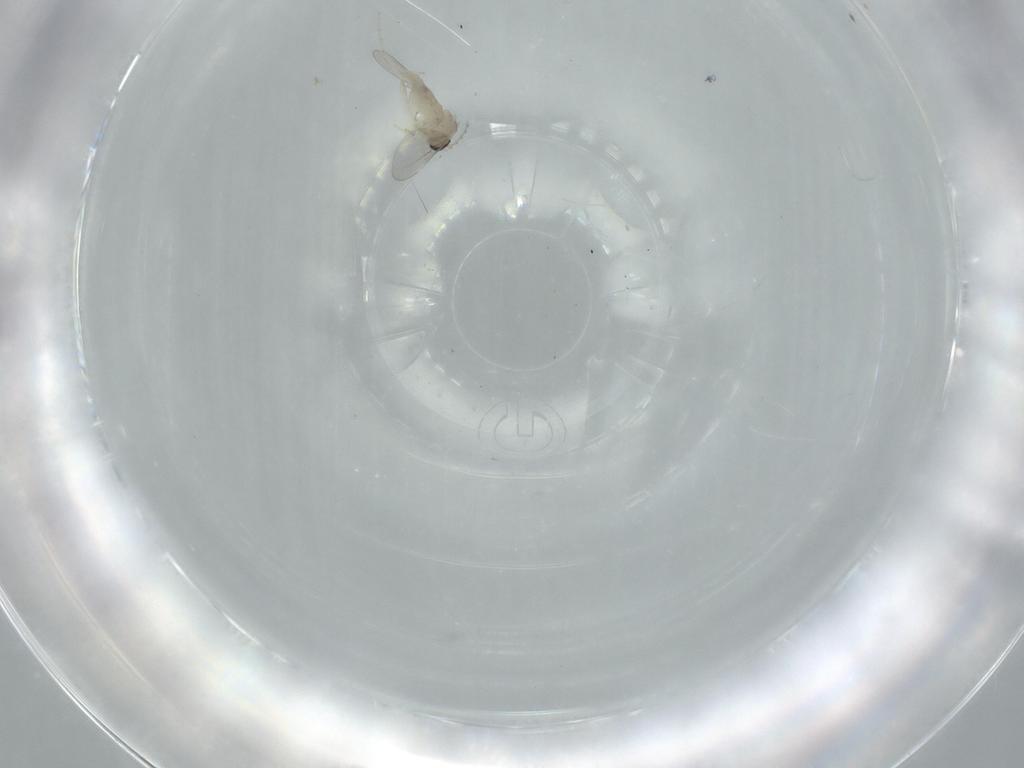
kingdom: Animalia
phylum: Arthropoda
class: Insecta
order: Diptera
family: Cecidomyiidae
